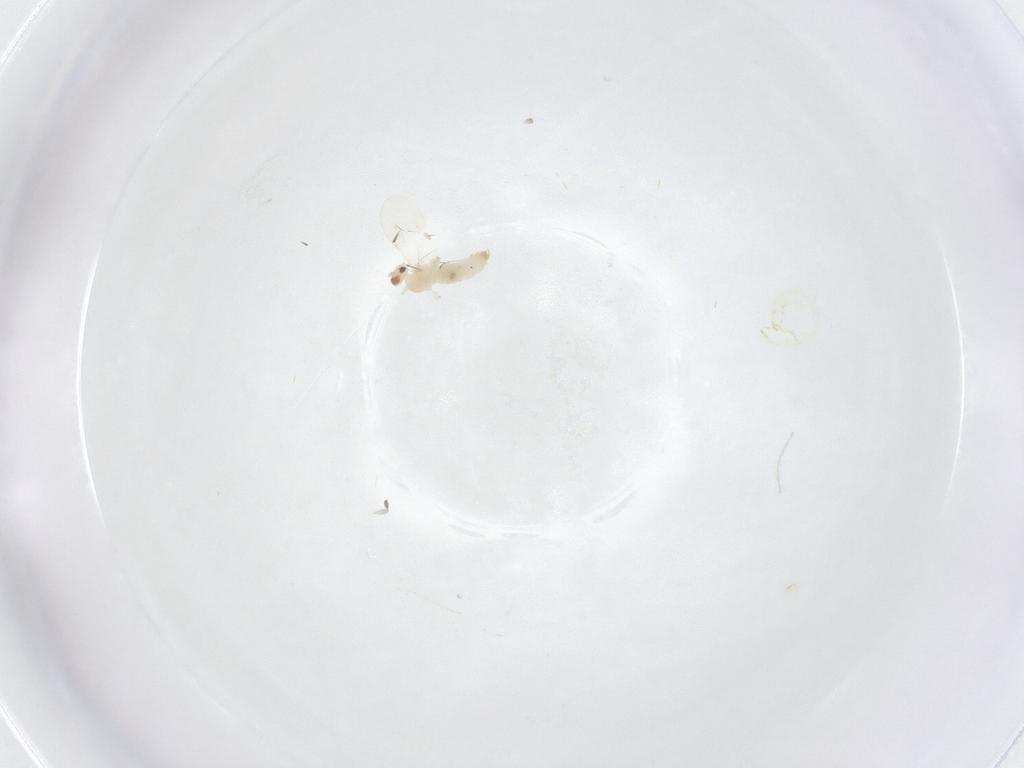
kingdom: Animalia
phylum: Arthropoda
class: Insecta
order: Diptera
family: Cecidomyiidae
